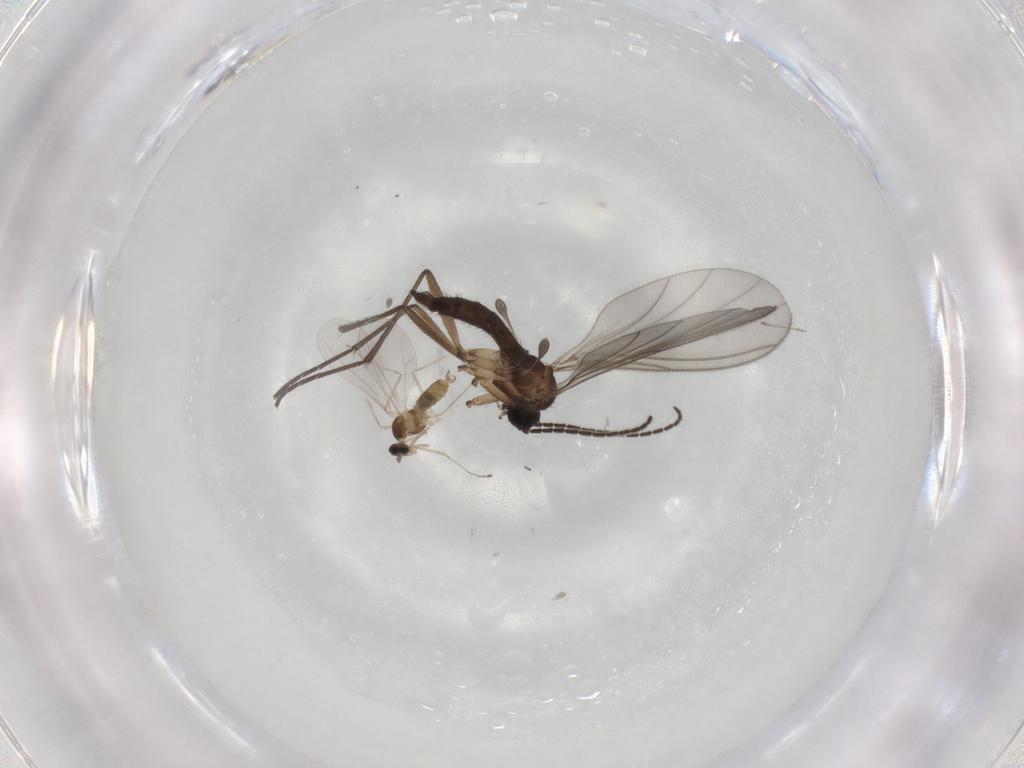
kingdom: Animalia
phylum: Arthropoda
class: Insecta
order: Diptera
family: Sciaridae
